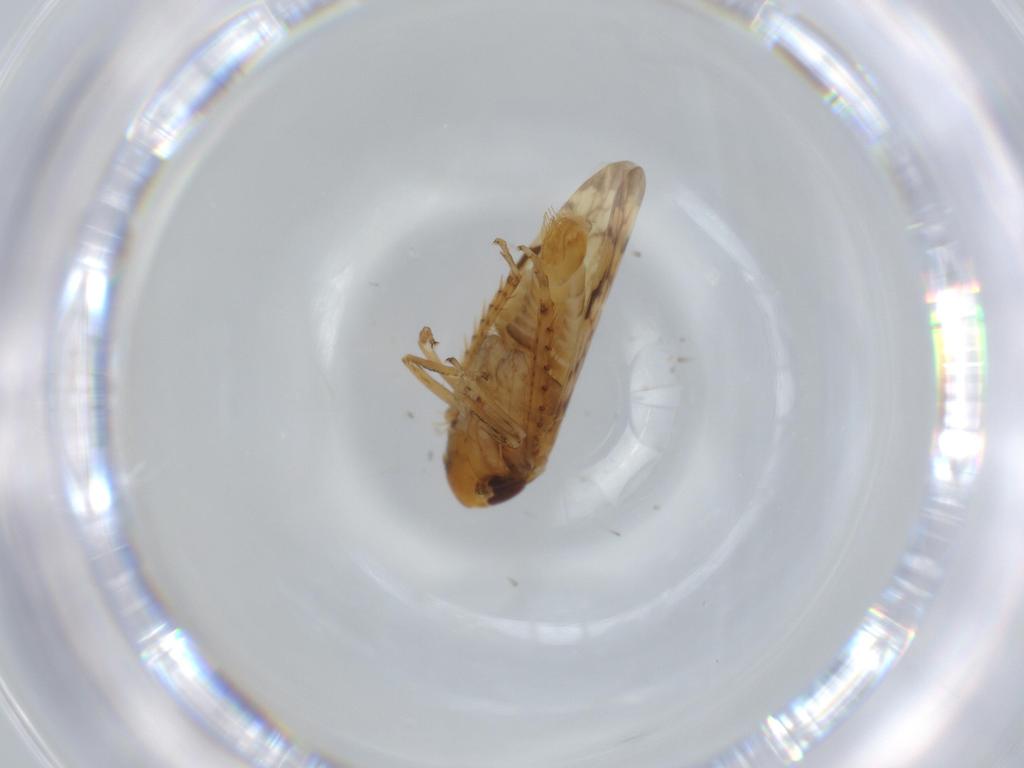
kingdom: Animalia
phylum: Arthropoda
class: Insecta
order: Hemiptera
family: Cicadellidae
